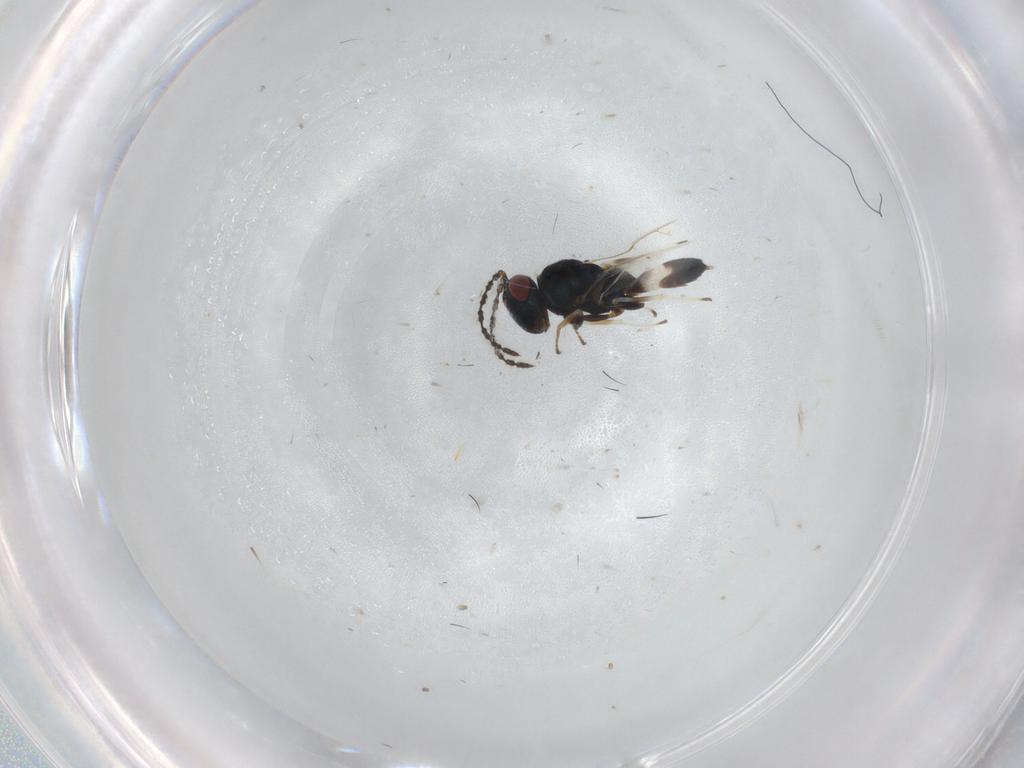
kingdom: Animalia
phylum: Arthropoda
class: Insecta
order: Hymenoptera
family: Pteromalidae
